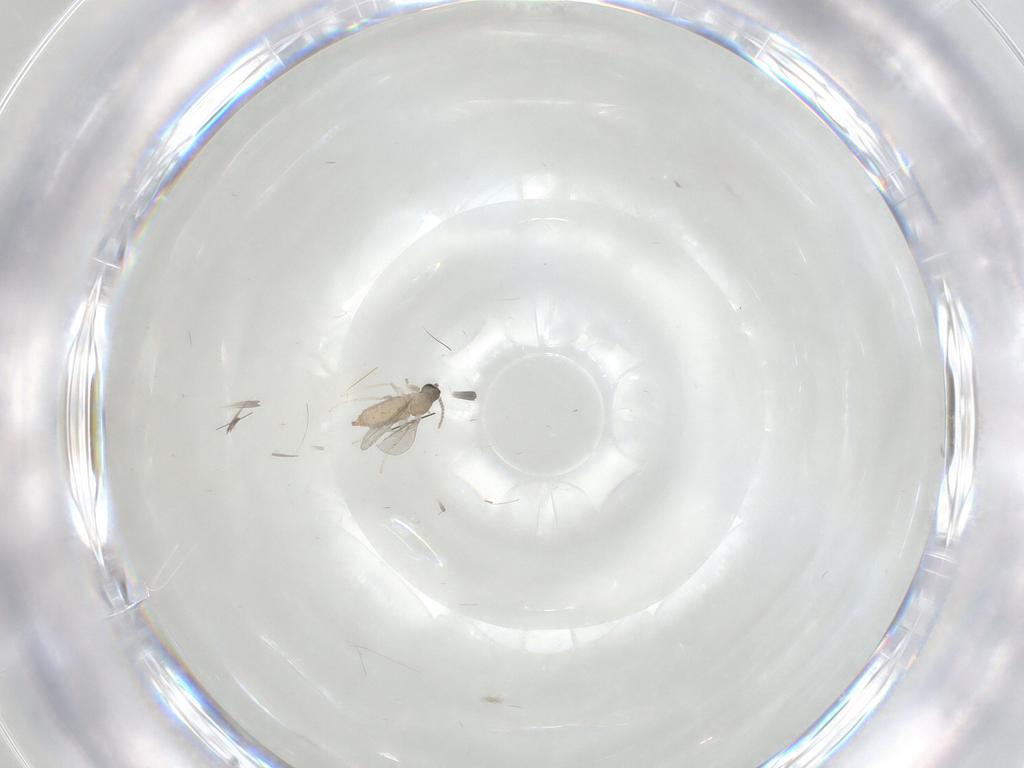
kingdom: Animalia
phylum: Arthropoda
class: Insecta
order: Diptera
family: Cecidomyiidae
